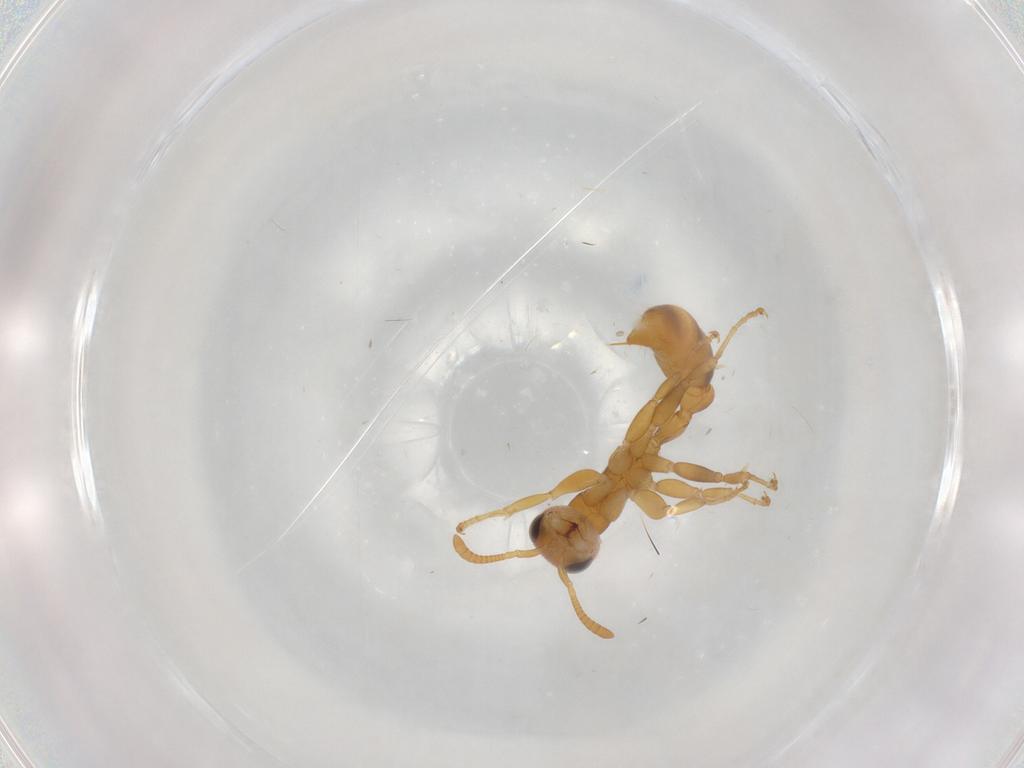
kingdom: Animalia
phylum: Arthropoda
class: Insecta
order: Hymenoptera
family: Formicidae
